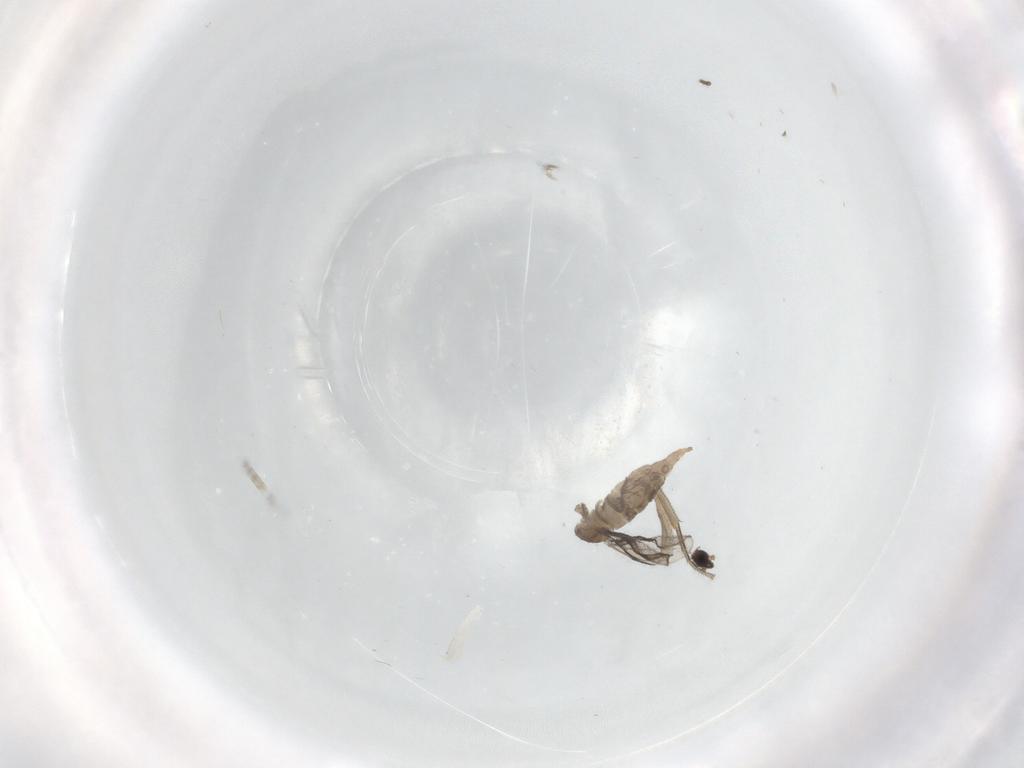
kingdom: Animalia
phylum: Arthropoda
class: Insecta
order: Diptera
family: Cecidomyiidae
